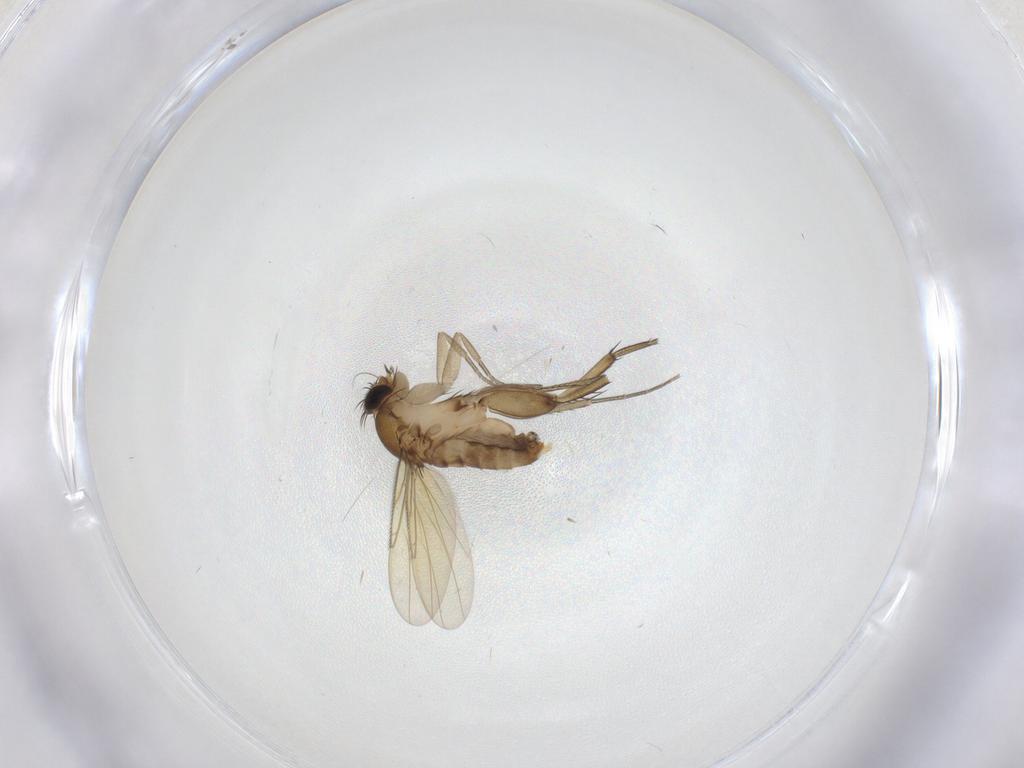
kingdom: Animalia
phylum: Arthropoda
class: Insecta
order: Diptera
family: Phoridae
